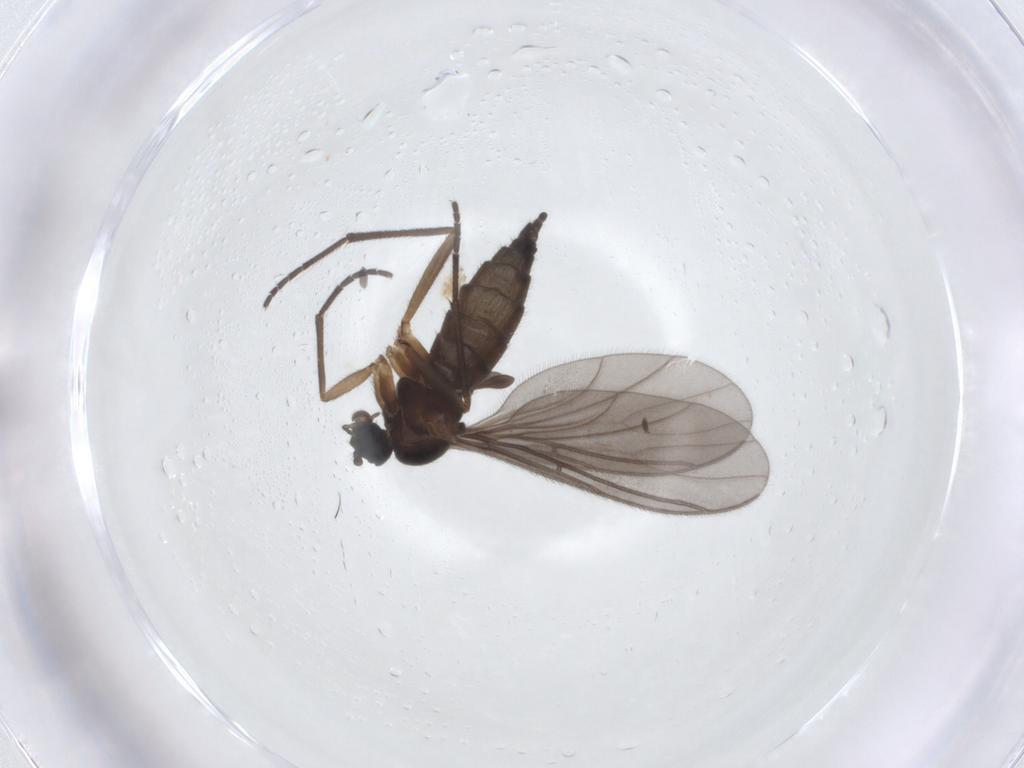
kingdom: Animalia
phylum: Arthropoda
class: Insecta
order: Diptera
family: Sciaridae
